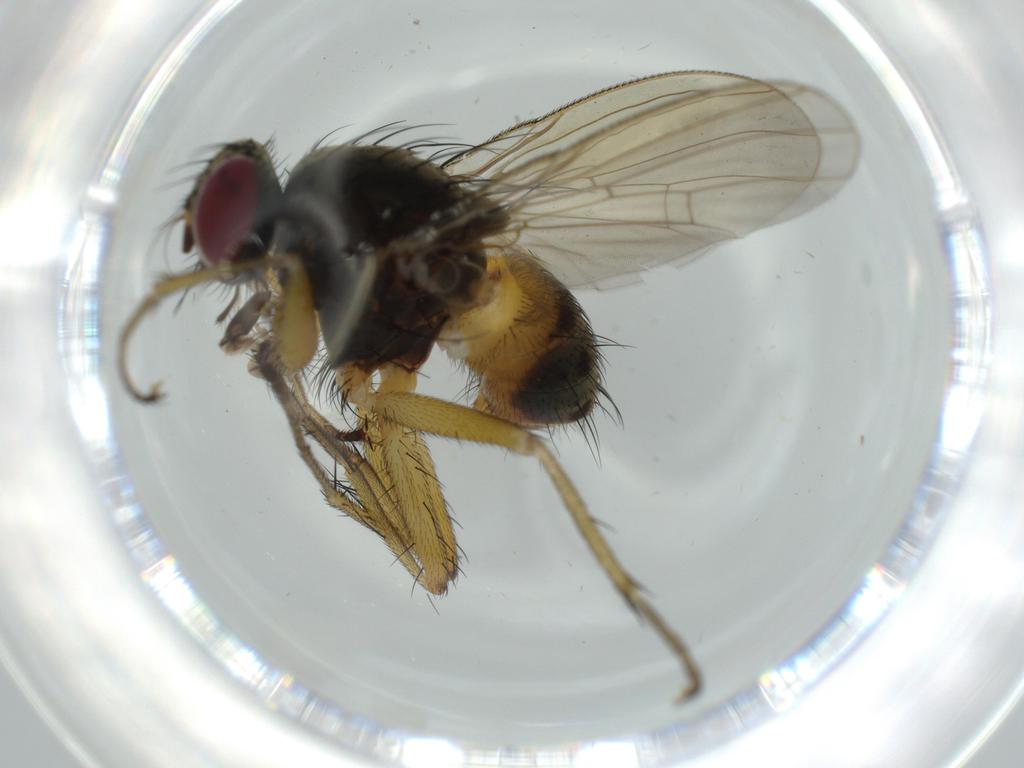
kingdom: Animalia
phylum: Arthropoda
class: Insecta
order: Diptera
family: Muscidae
